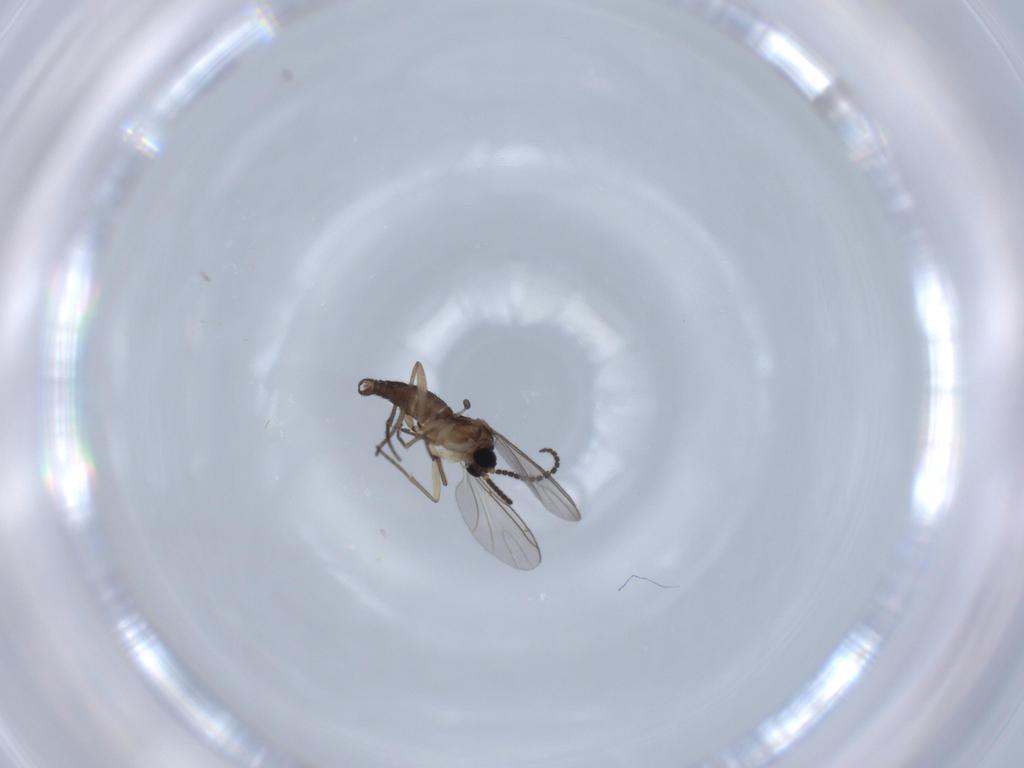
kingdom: Animalia
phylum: Arthropoda
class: Insecta
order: Diptera
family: Sciaridae
